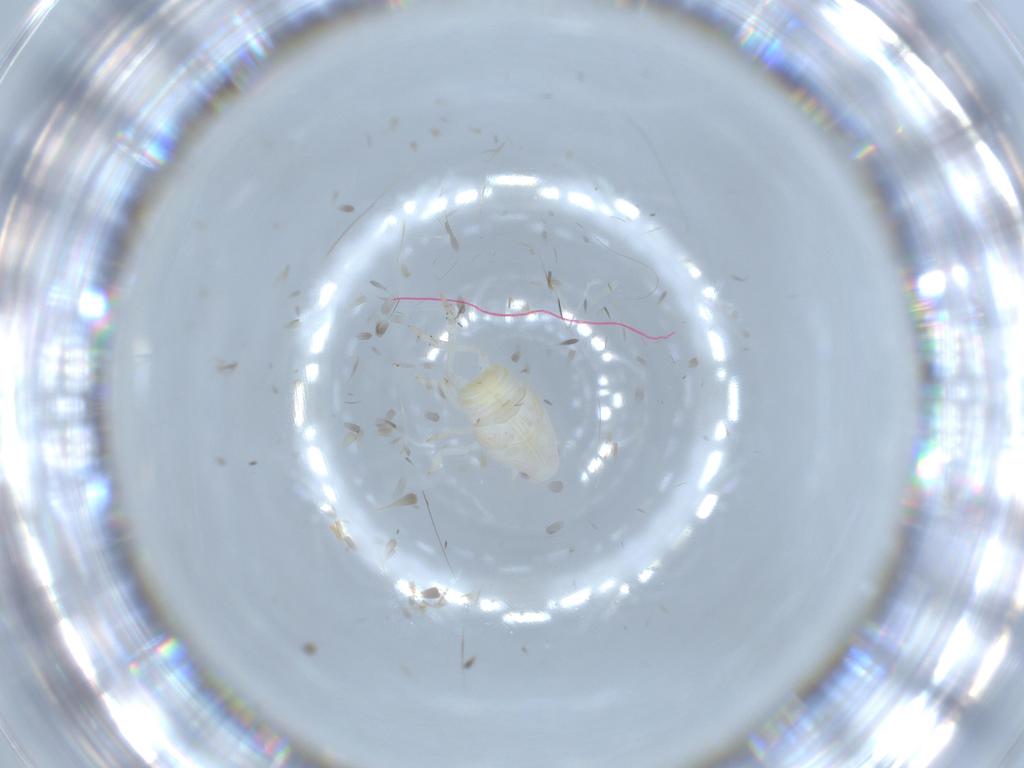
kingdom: Animalia
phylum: Arthropoda
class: Insecta
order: Hemiptera
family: Flatidae
